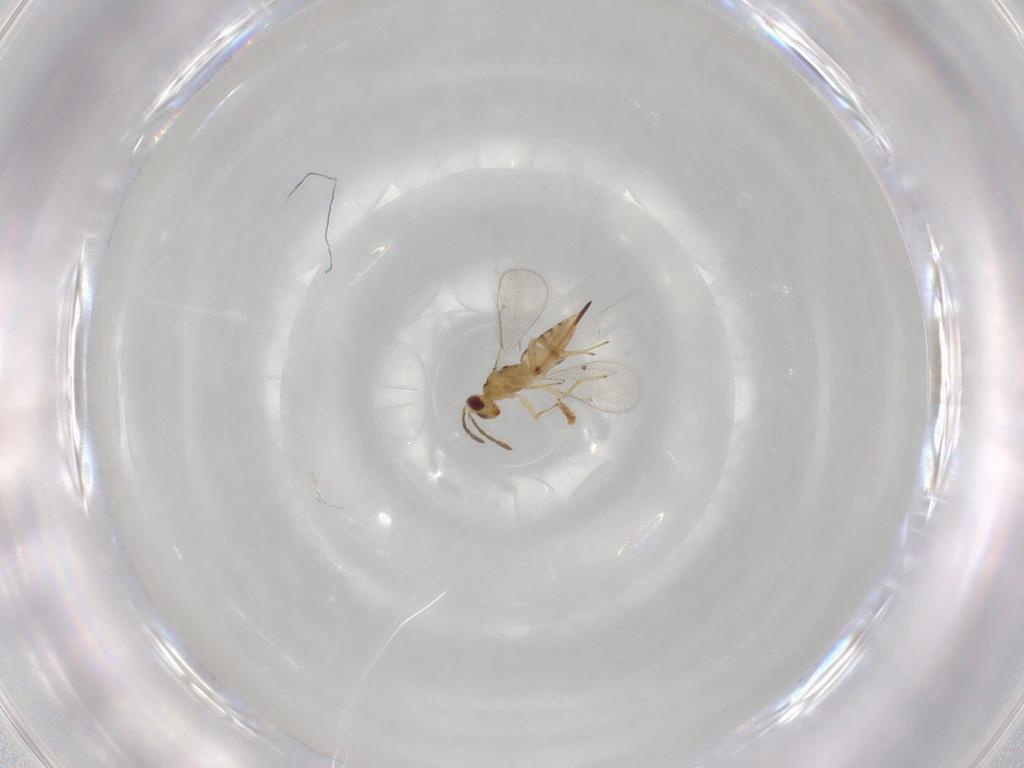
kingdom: Animalia
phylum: Arthropoda
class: Insecta
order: Hymenoptera
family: Eulophidae
